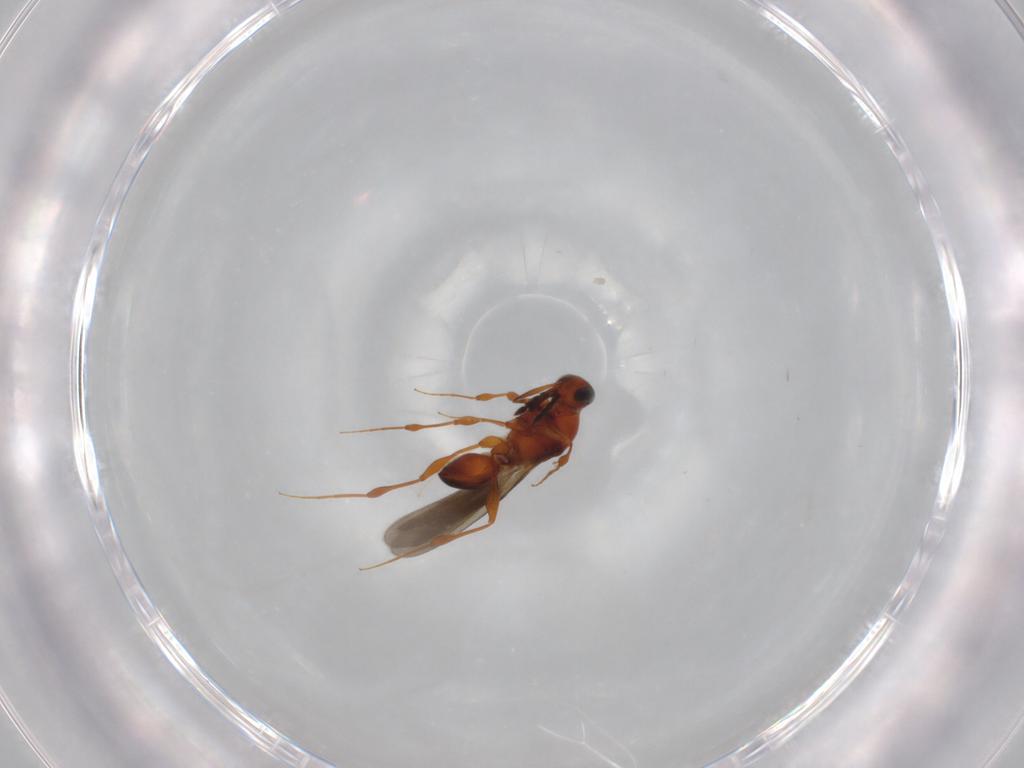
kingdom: Animalia
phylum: Arthropoda
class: Insecta
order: Hymenoptera
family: Platygastridae
